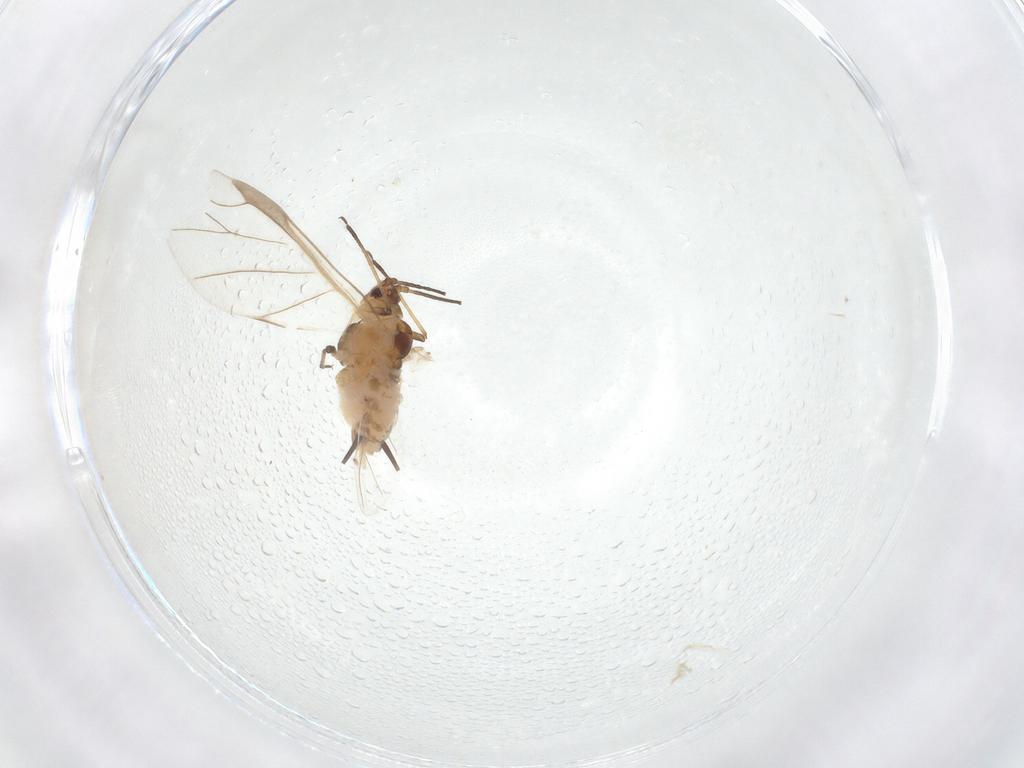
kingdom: Animalia
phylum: Arthropoda
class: Insecta
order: Hemiptera
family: Aphididae
